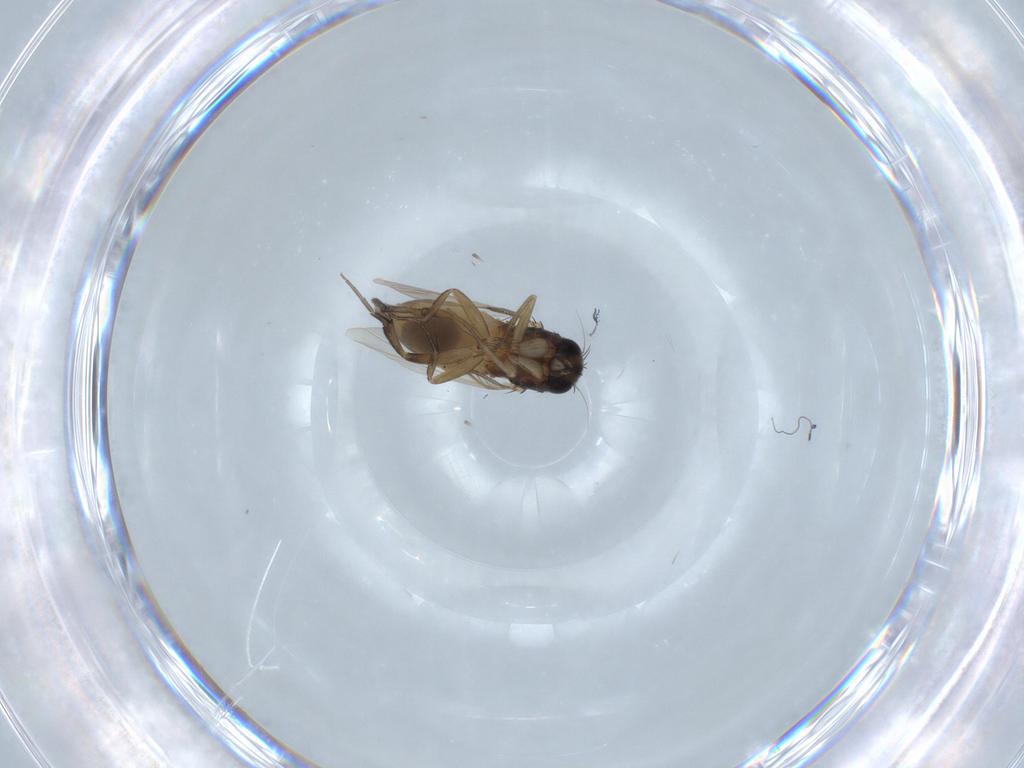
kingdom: Animalia
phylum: Arthropoda
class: Insecta
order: Diptera
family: Phoridae
